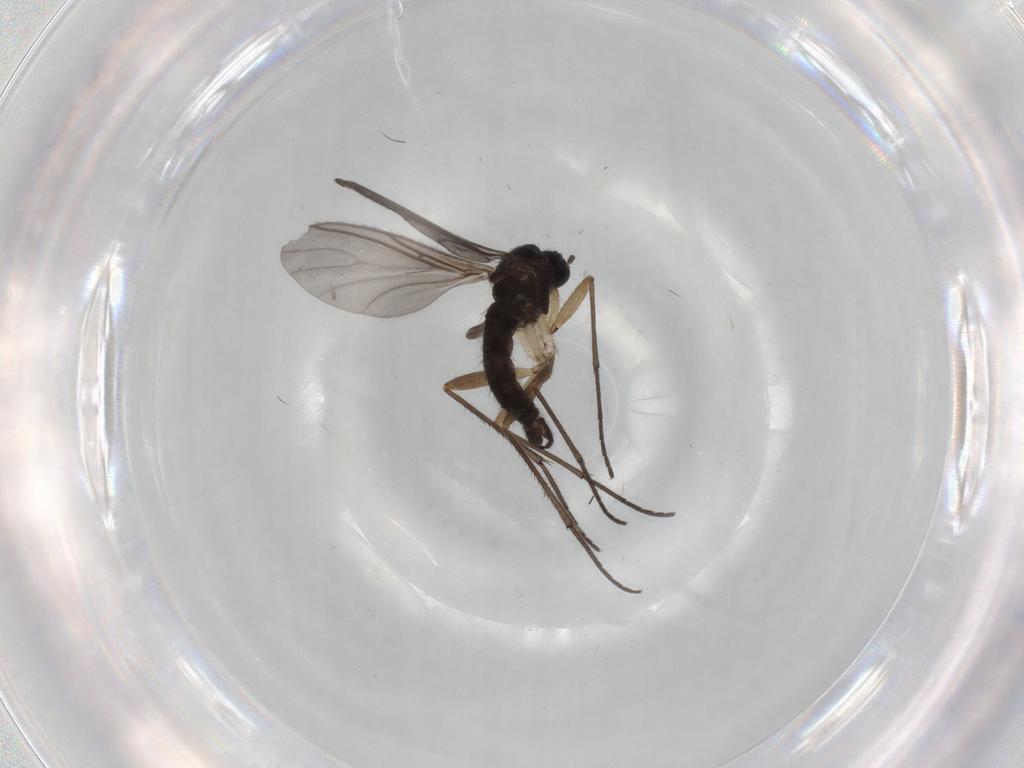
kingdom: Animalia
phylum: Arthropoda
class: Insecta
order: Diptera
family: Sciaridae
